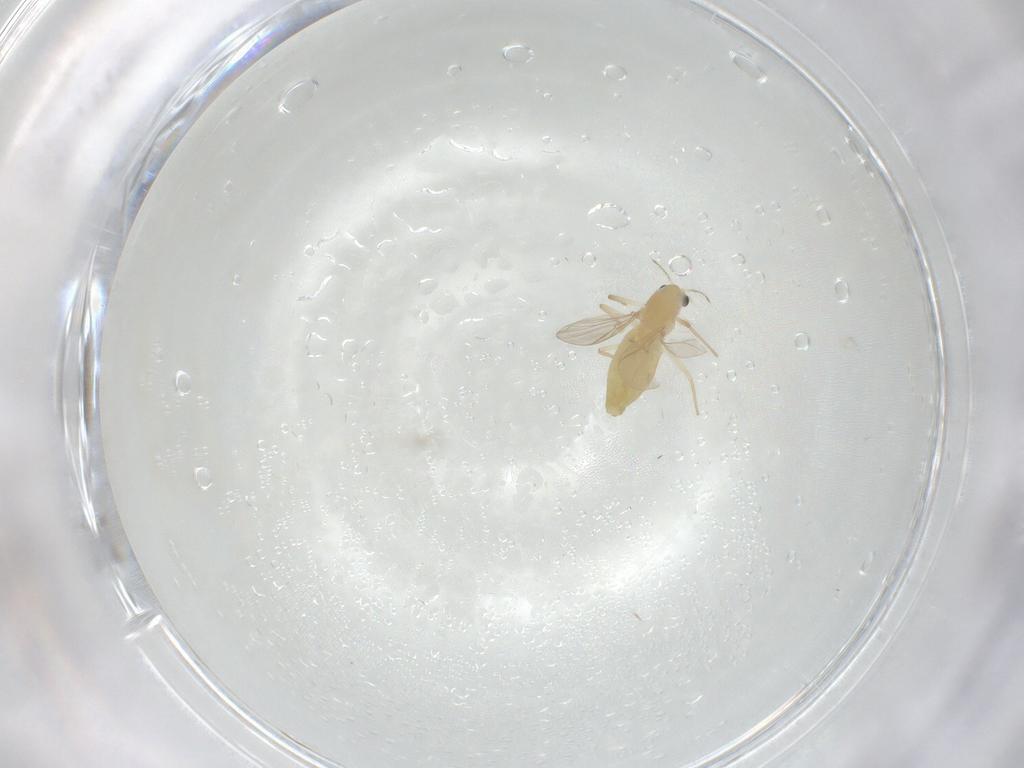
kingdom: Animalia
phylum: Arthropoda
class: Insecta
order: Diptera
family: Chironomidae
